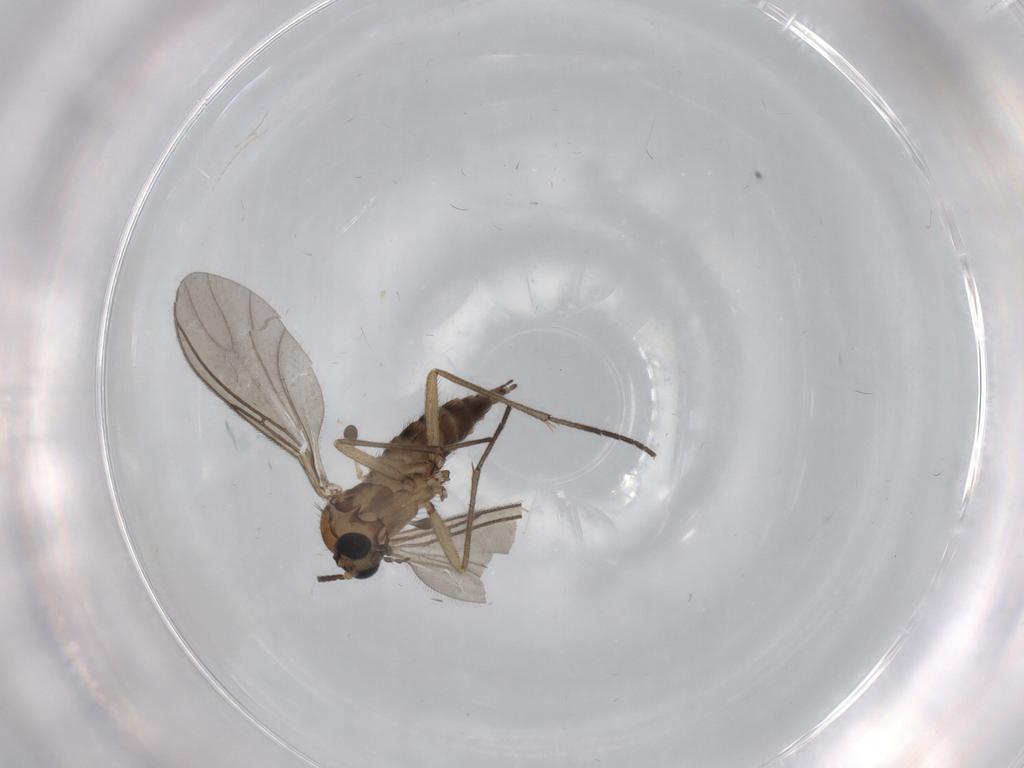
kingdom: Animalia
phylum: Arthropoda
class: Insecta
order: Diptera
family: Sciaridae
